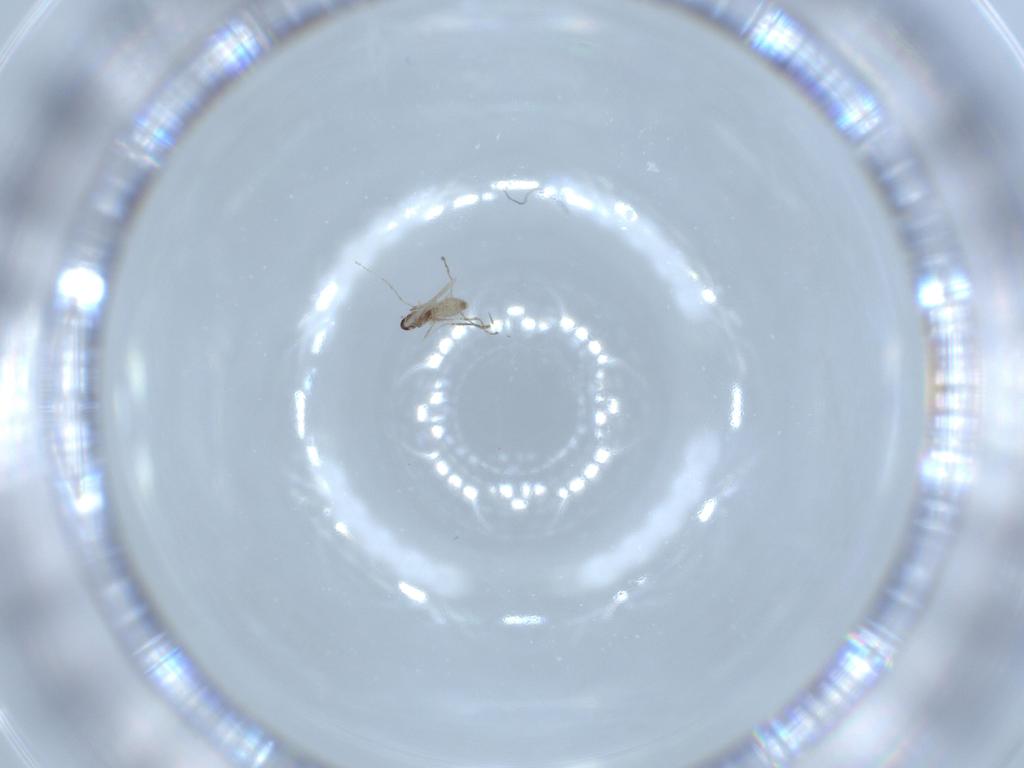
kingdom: Animalia
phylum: Arthropoda
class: Insecta
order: Diptera
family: Cecidomyiidae
